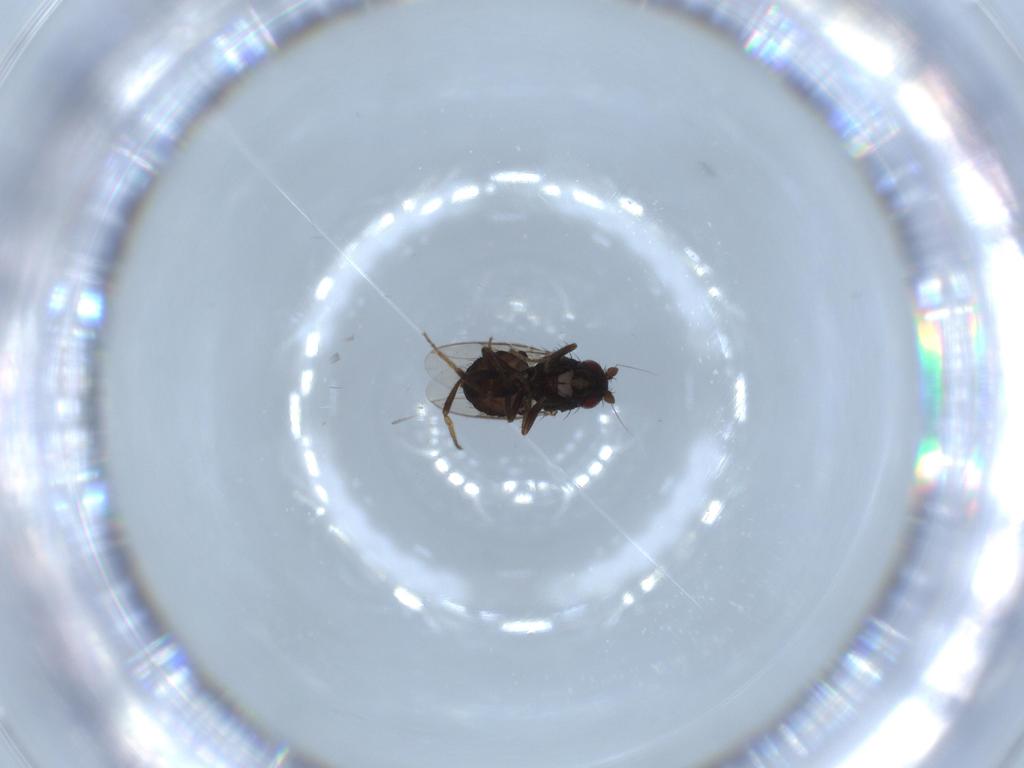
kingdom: Animalia
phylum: Arthropoda
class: Insecta
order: Diptera
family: Sphaeroceridae
